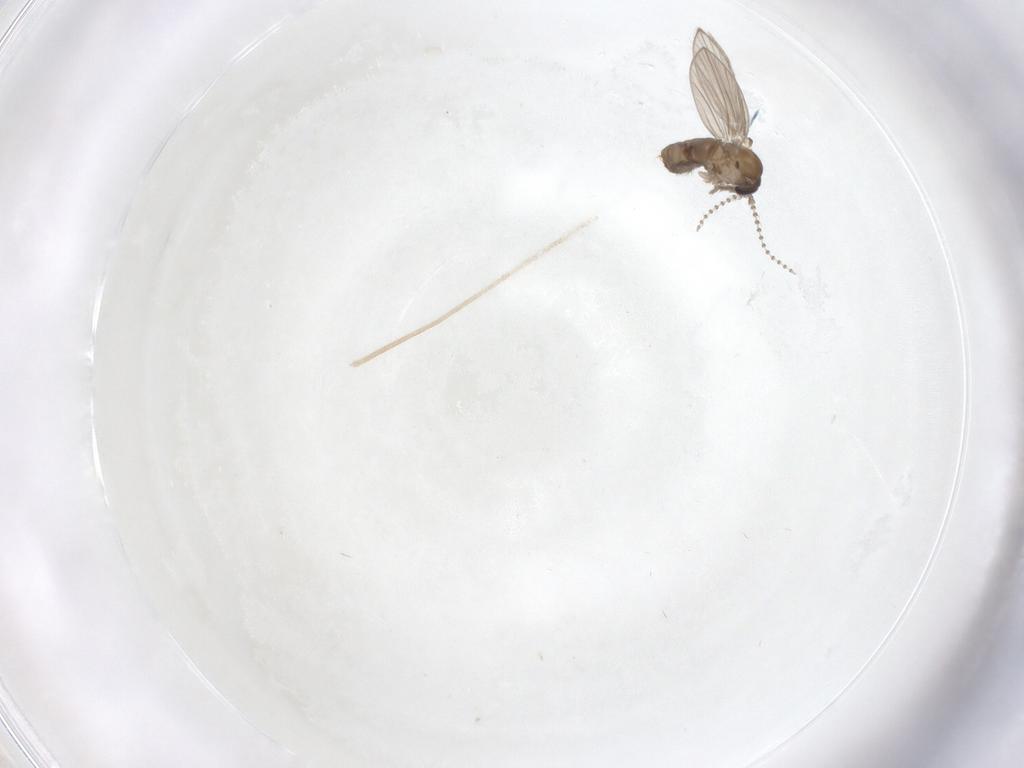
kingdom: Animalia
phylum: Arthropoda
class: Insecta
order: Diptera
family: Psychodidae
